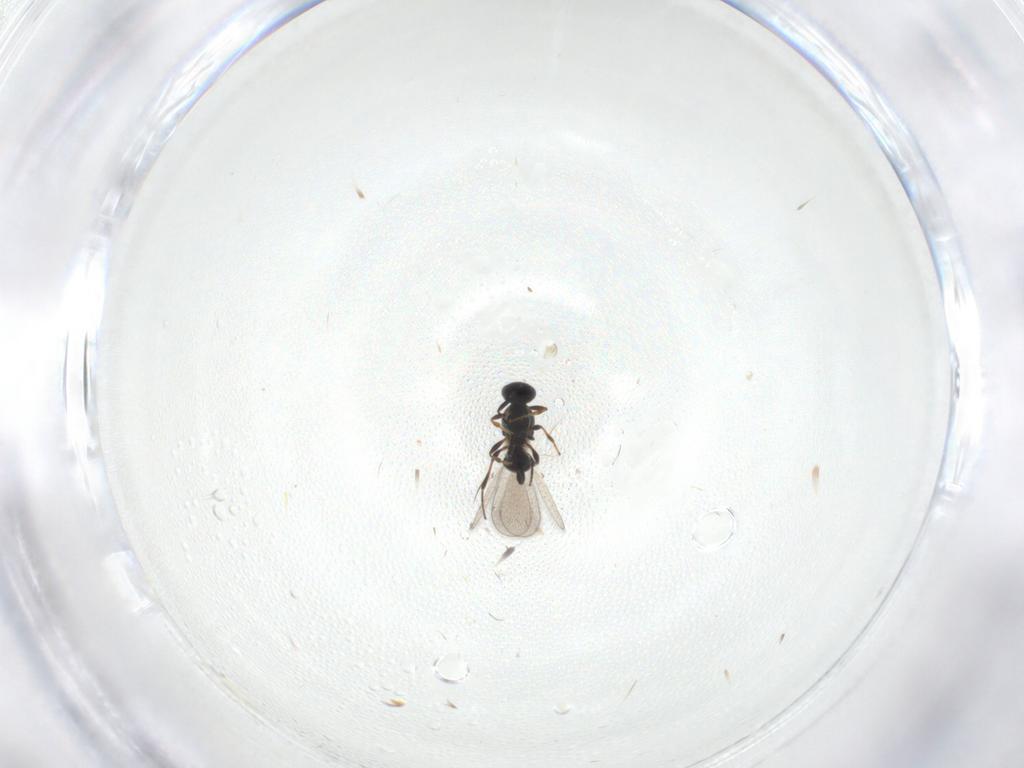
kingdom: Animalia
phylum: Arthropoda
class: Insecta
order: Hymenoptera
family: Platygastridae
